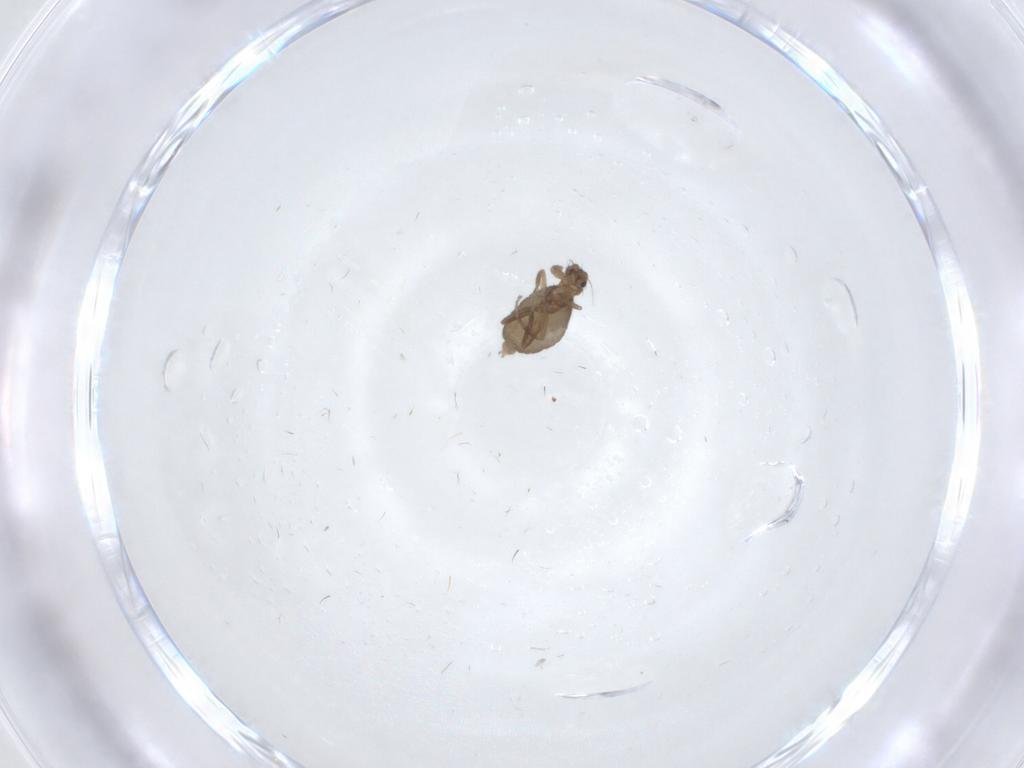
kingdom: Animalia
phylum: Arthropoda
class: Insecta
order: Diptera
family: Phoridae
